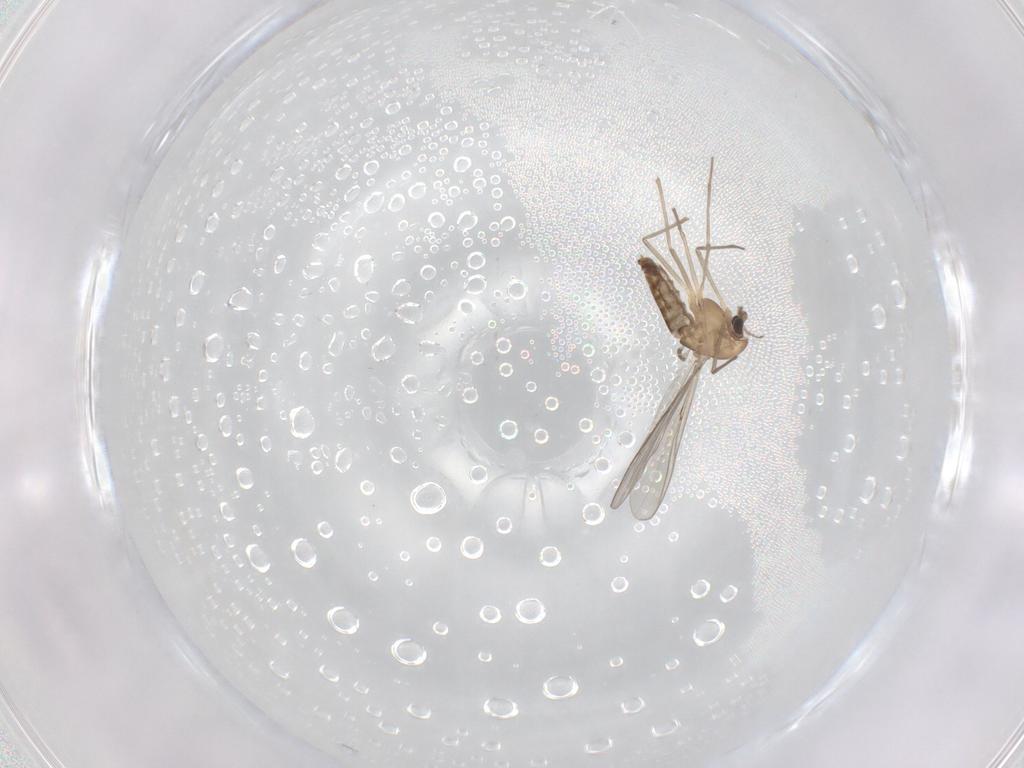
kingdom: Animalia
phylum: Arthropoda
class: Insecta
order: Diptera
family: Chironomidae
